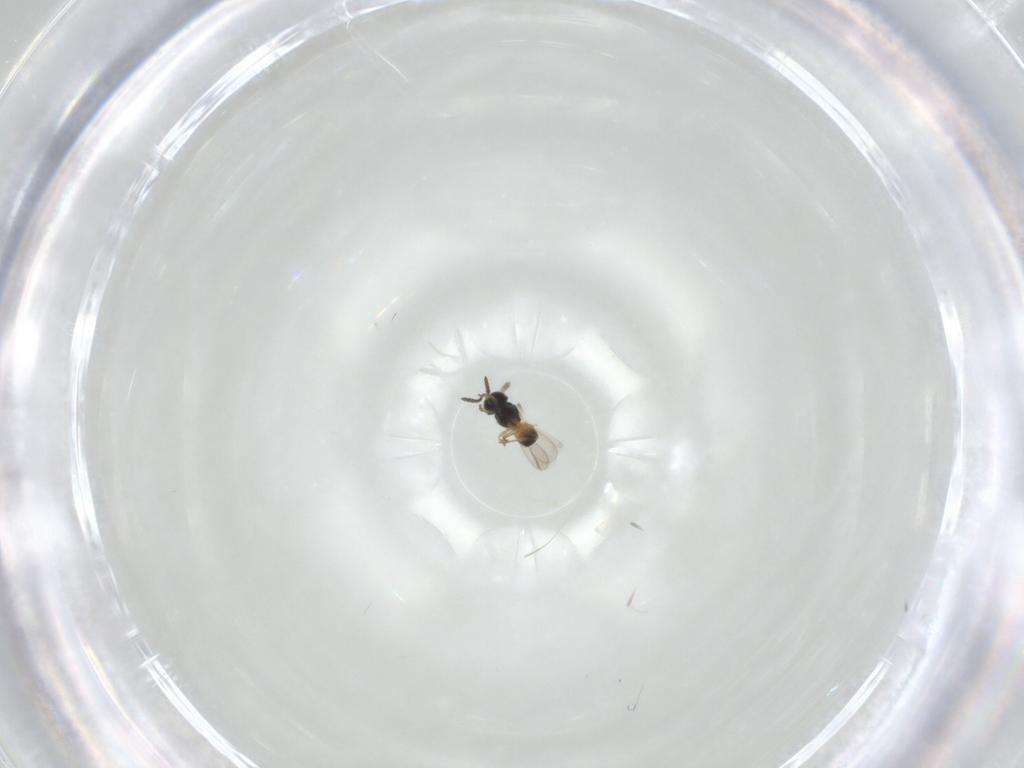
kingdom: Animalia
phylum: Arthropoda
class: Insecta
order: Hymenoptera
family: Scelionidae
